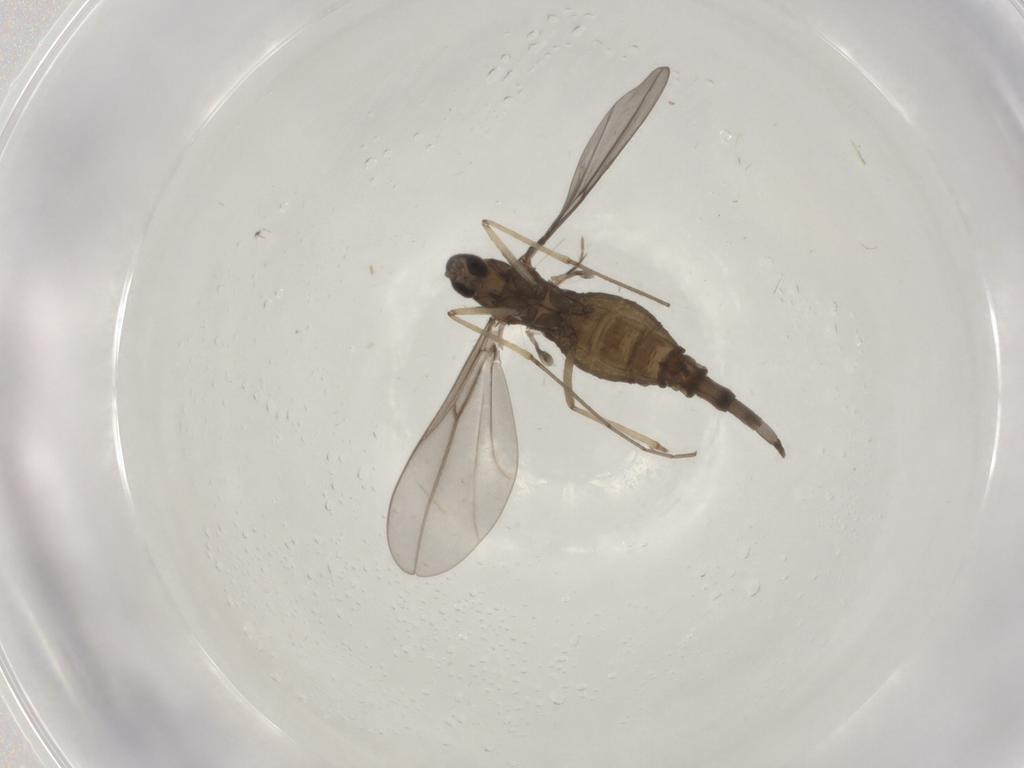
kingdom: Animalia
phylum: Arthropoda
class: Insecta
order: Diptera
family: Cecidomyiidae
